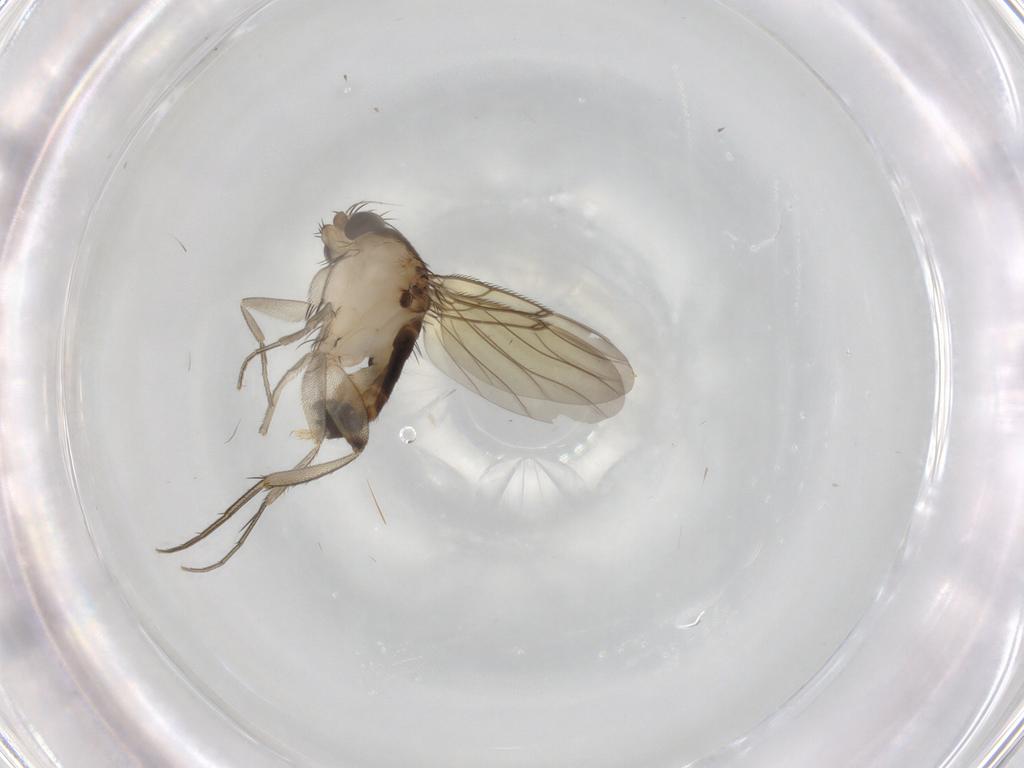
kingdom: Animalia
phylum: Arthropoda
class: Insecta
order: Diptera
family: Phoridae
